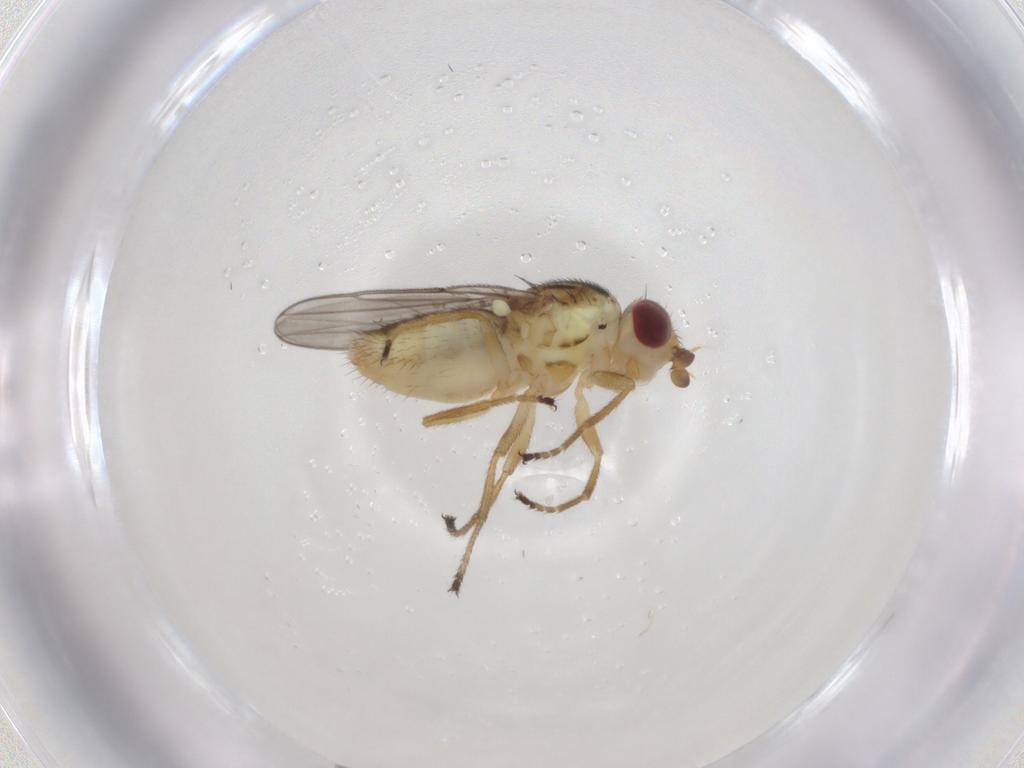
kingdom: Animalia
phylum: Arthropoda
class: Insecta
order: Diptera
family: Chloropidae
